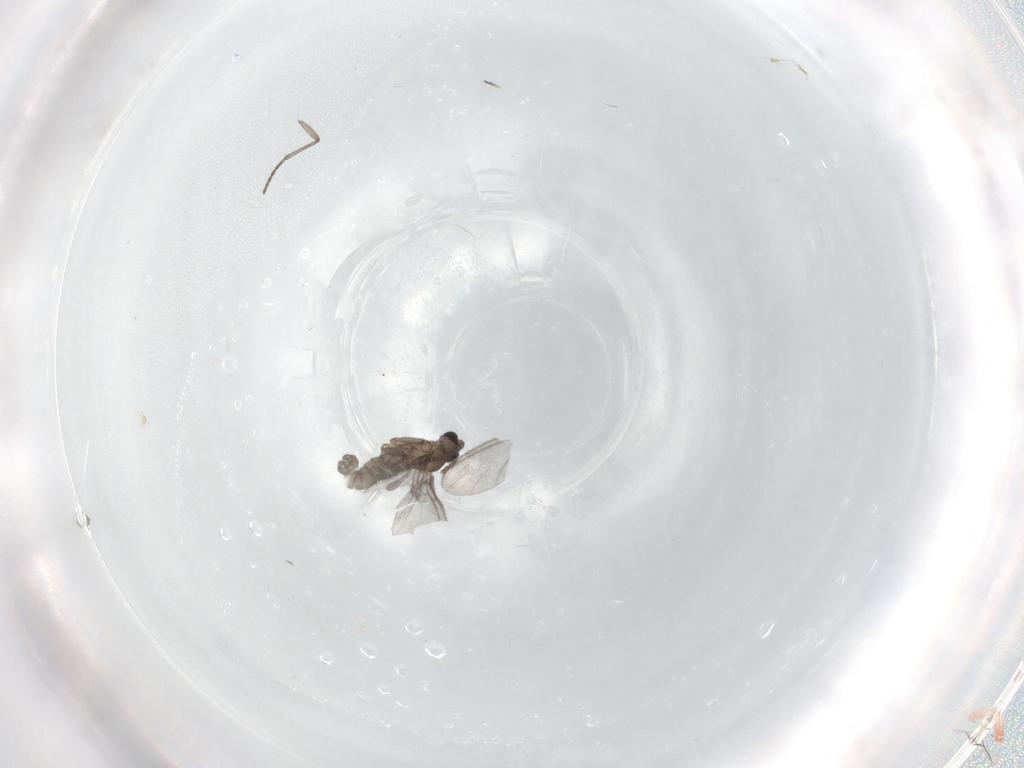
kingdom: Animalia
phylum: Arthropoda
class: Insecta
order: Diptera
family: Sciaridae
